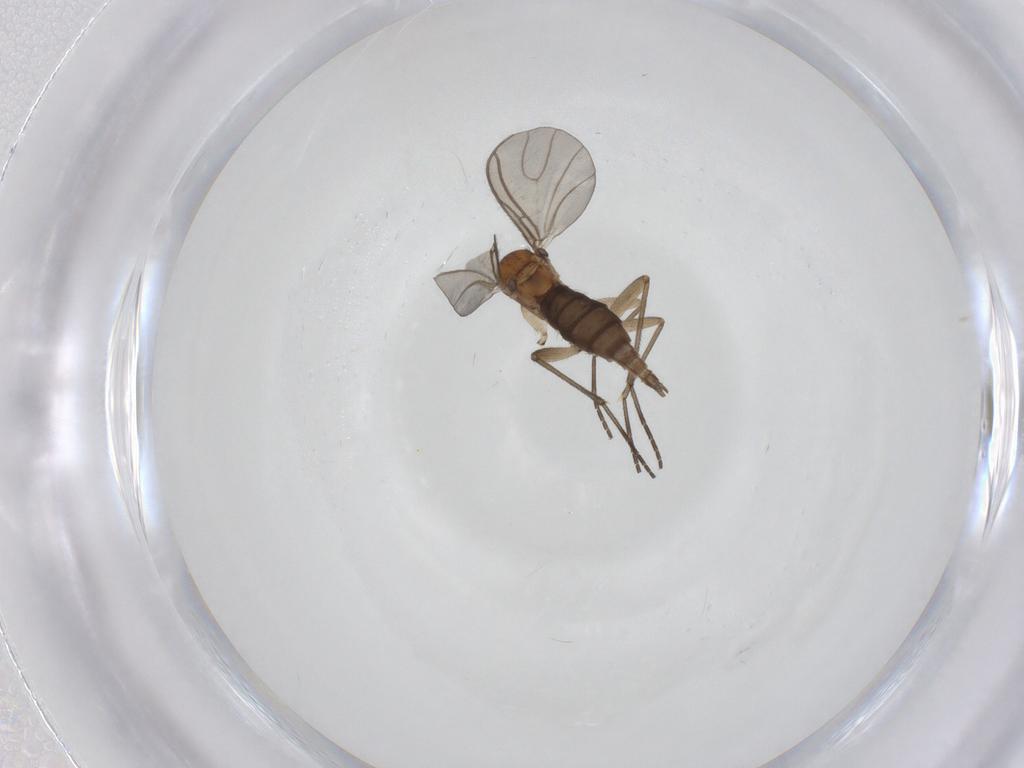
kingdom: Animalia
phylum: Arthropoda
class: Insecta
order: Diptera
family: Sciaridae
